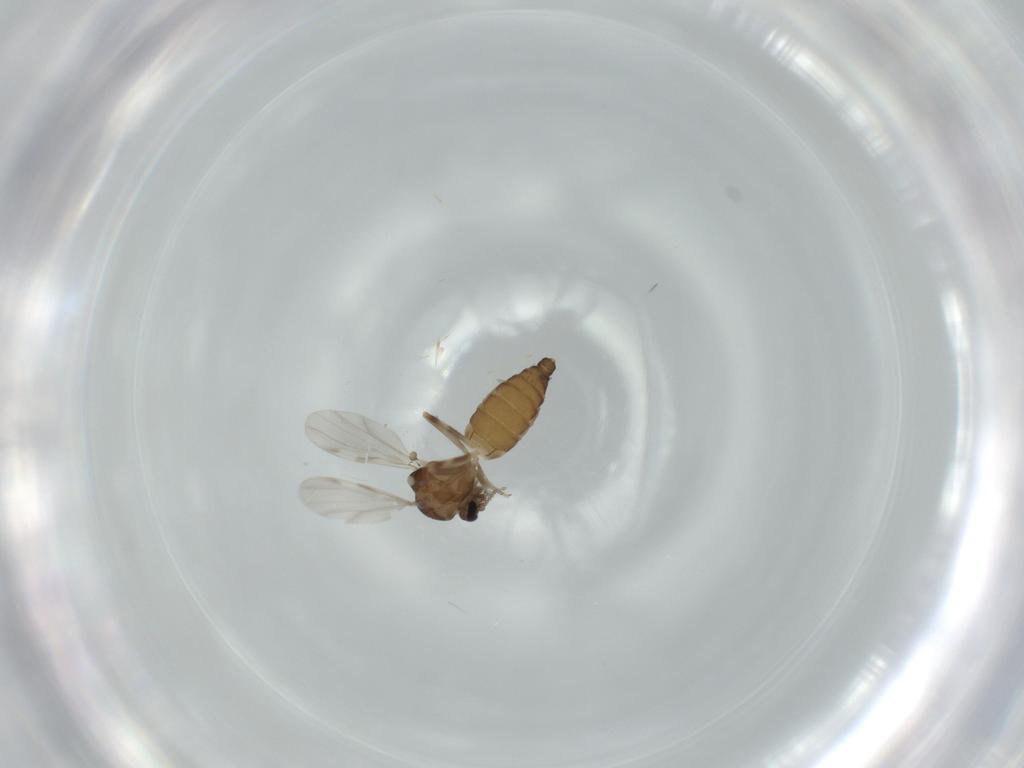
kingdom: Animalia
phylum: Arthropoda
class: Insecta
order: Diptera
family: Ceratopogonidae
